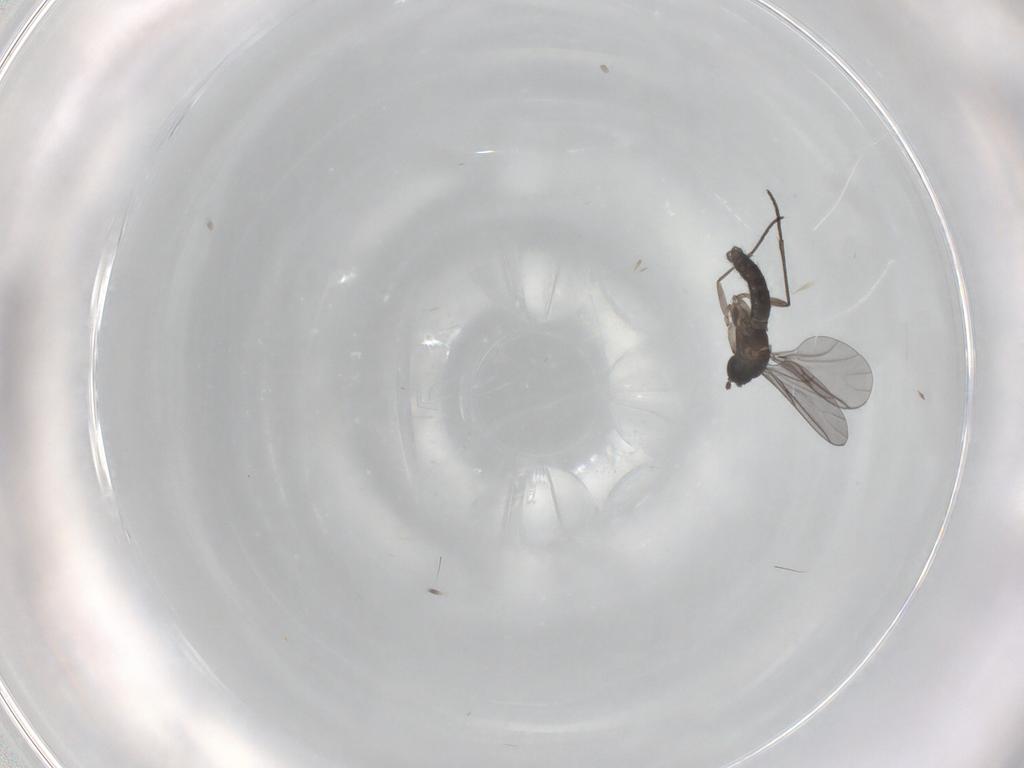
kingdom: Animalia
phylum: Arthropoda
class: Insecta
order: Diptera
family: Sciaridae
